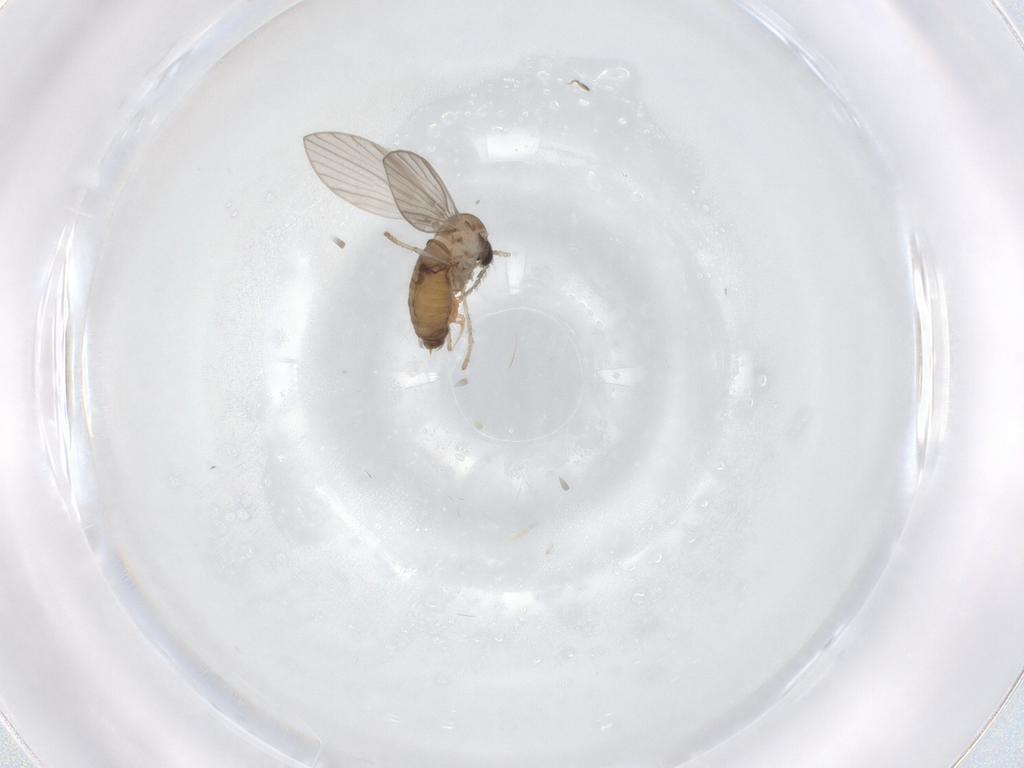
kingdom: Animalia
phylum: Arthropoda
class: Insecta
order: Diptera
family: Psychodidae
